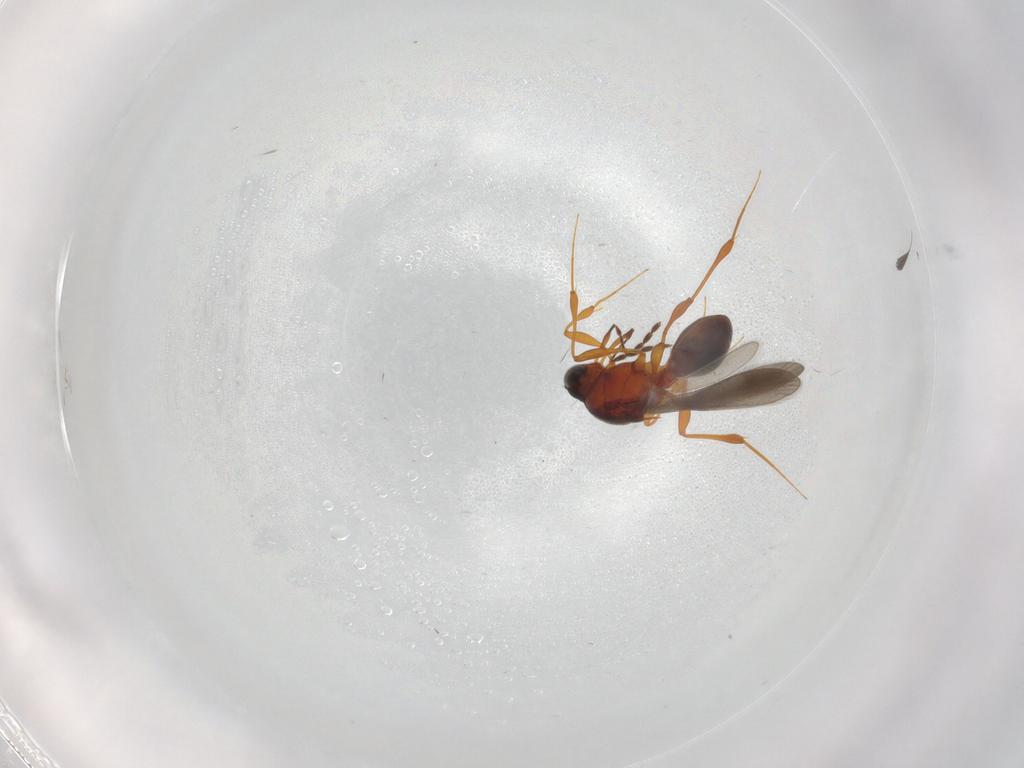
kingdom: Animalia
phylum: Arthropoda
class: Insecta
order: Hymenoptera
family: Platygastridae
